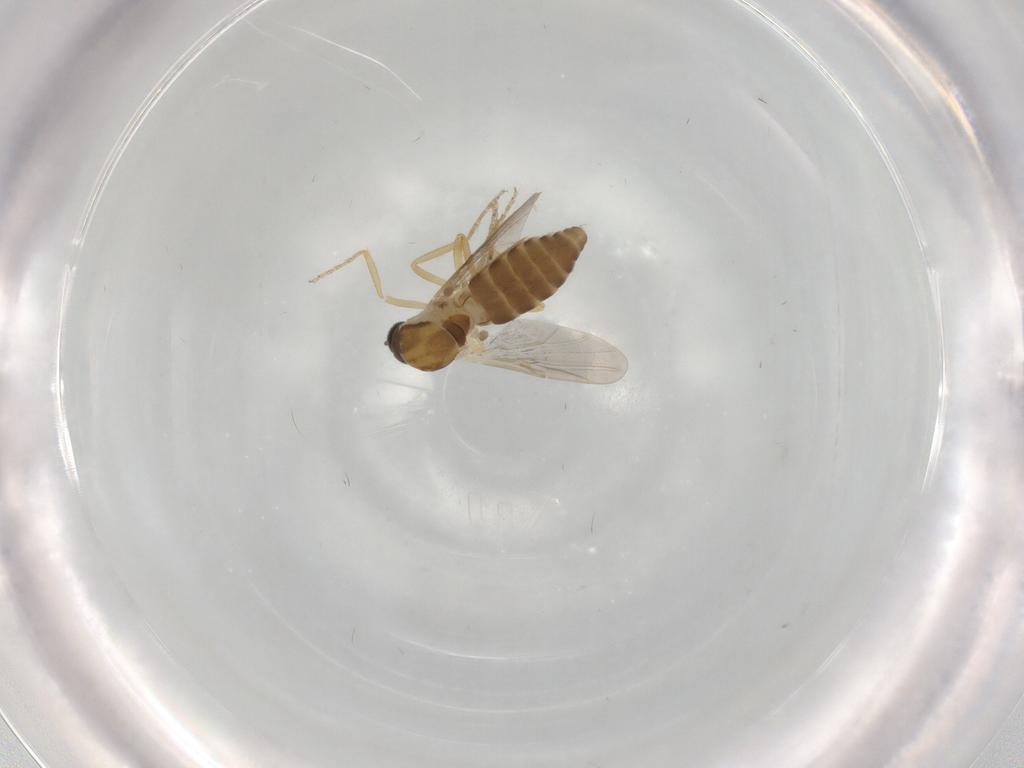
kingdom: Animalia
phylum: Arthropoda
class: Insecta
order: Diptera
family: Ceratopogonidae
